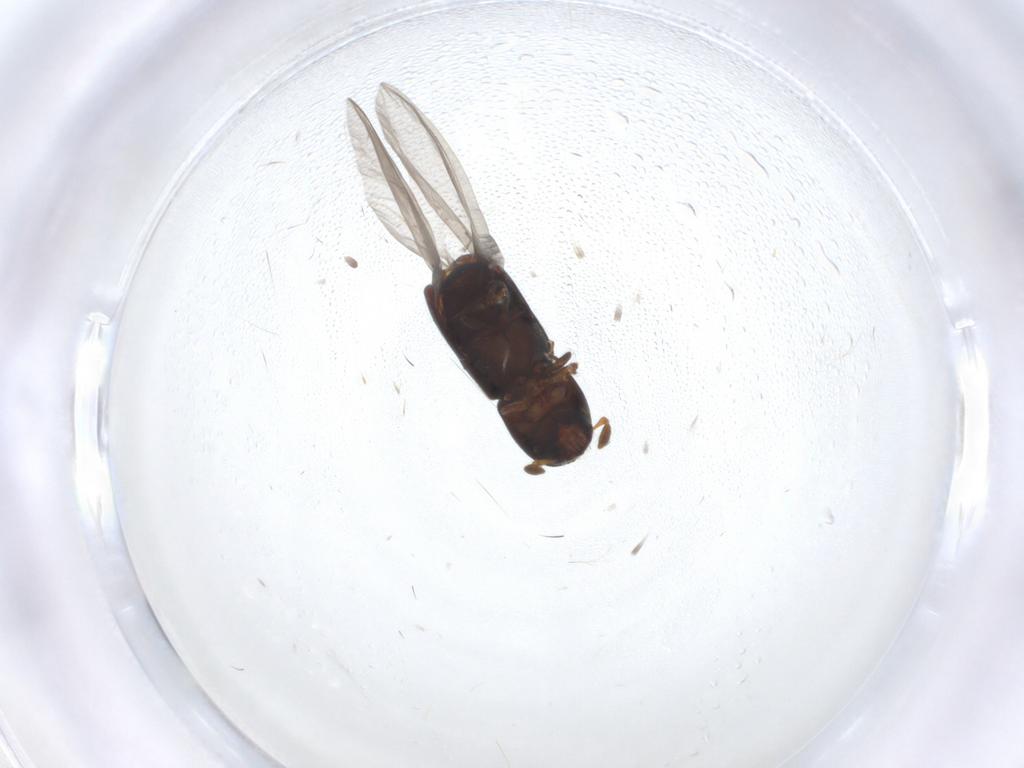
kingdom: Animalia
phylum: Arthropoda
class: Insecta
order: Coleoptera
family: Curculionidae
